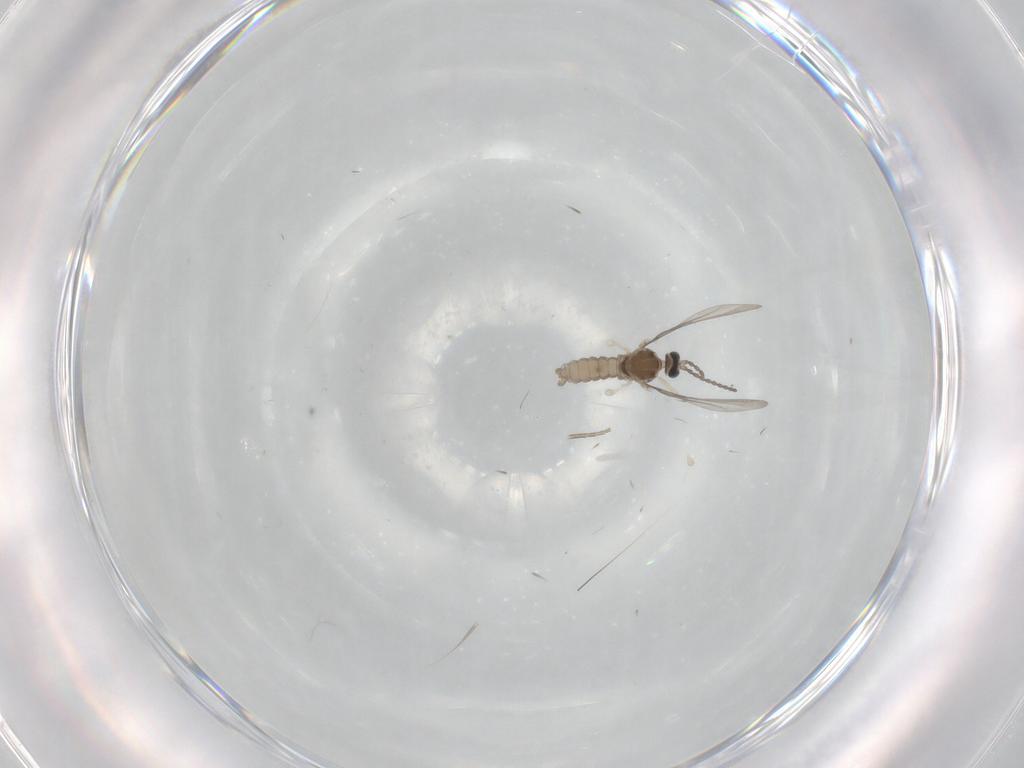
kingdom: Animalia
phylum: Arthropoda
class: Insecta
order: Diptera
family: Phoridae
